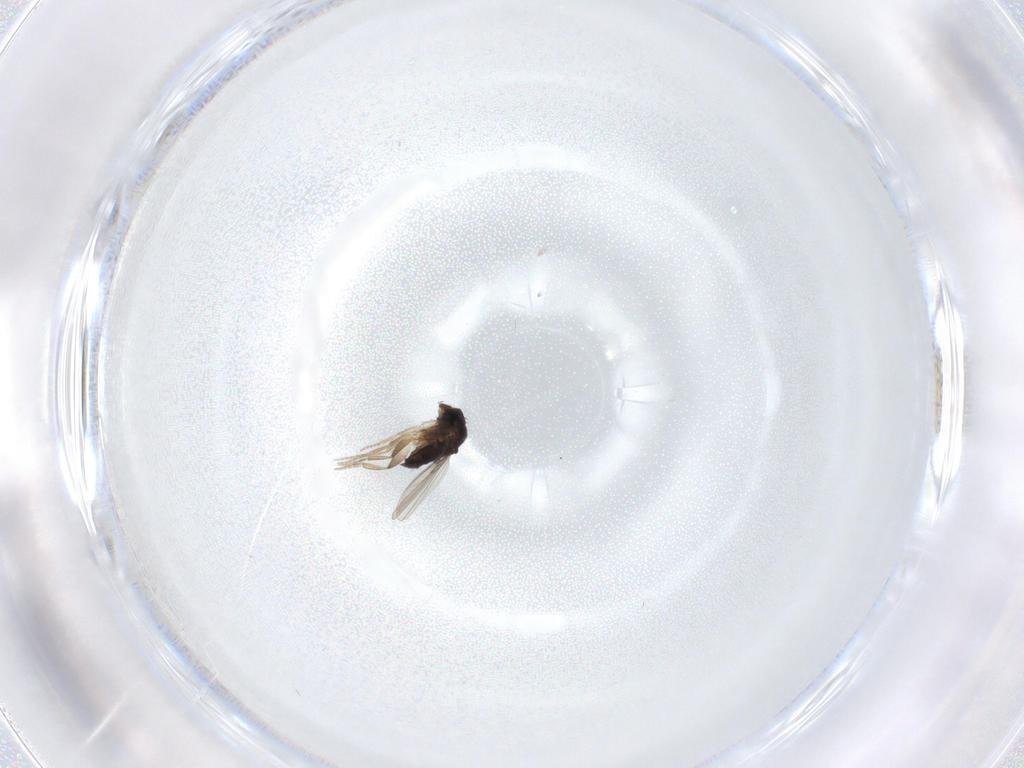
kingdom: Animalia
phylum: Arthropoda
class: Insecta
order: Diptera
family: Phoridae
